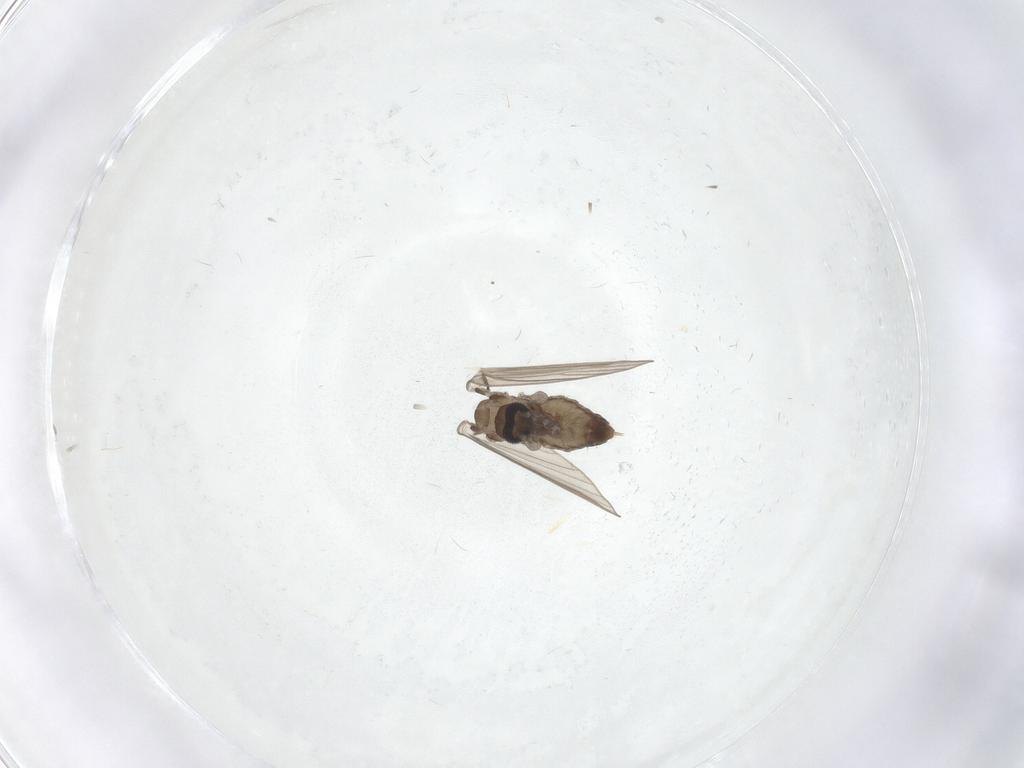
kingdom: Animalia
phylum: Arthropoda
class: Insecta
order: Diptera
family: Psychodidae
